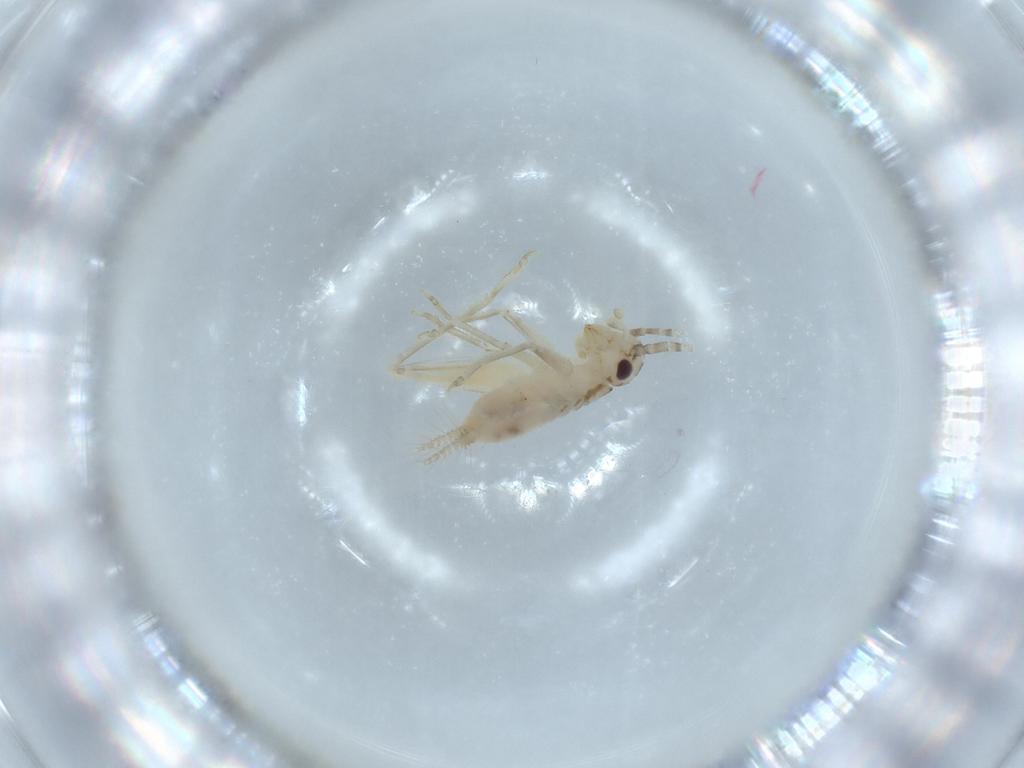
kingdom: Animalia
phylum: Arthropoda
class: Insecta
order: Orthoptera
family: Trigonidiidae
